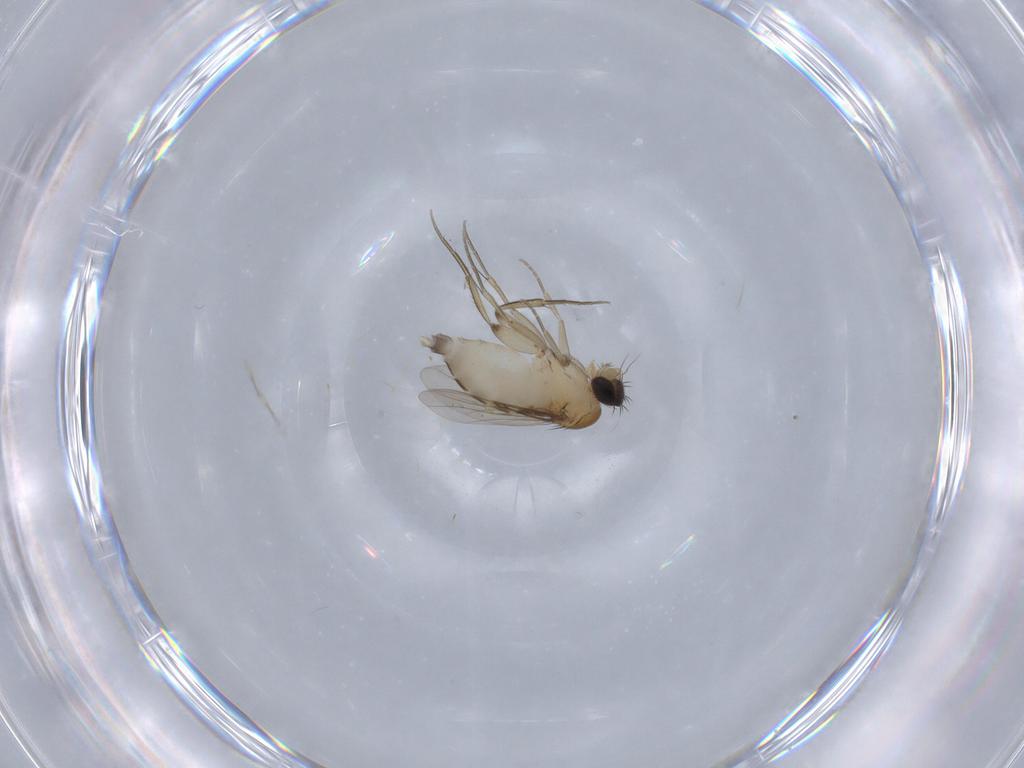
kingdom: Animalia
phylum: Arthropoda
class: Insecta
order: Diptera
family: Phoridae
